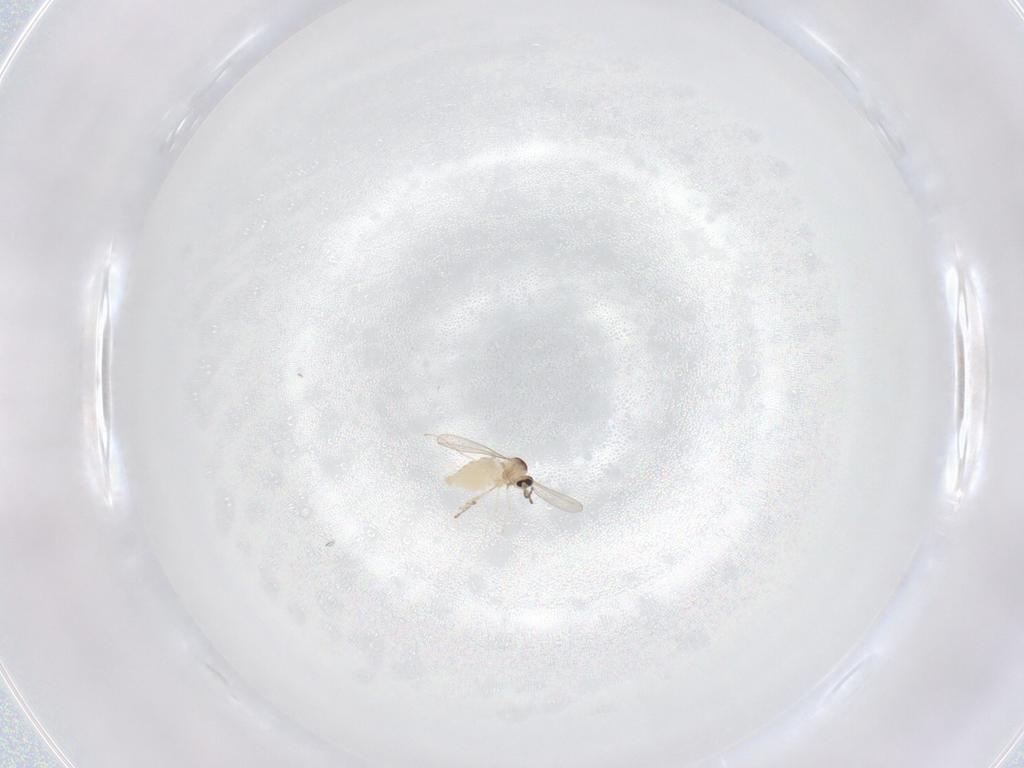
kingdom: Animalia
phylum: Arthropoda
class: Insecta
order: Diptera
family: Cecidomyiidae
